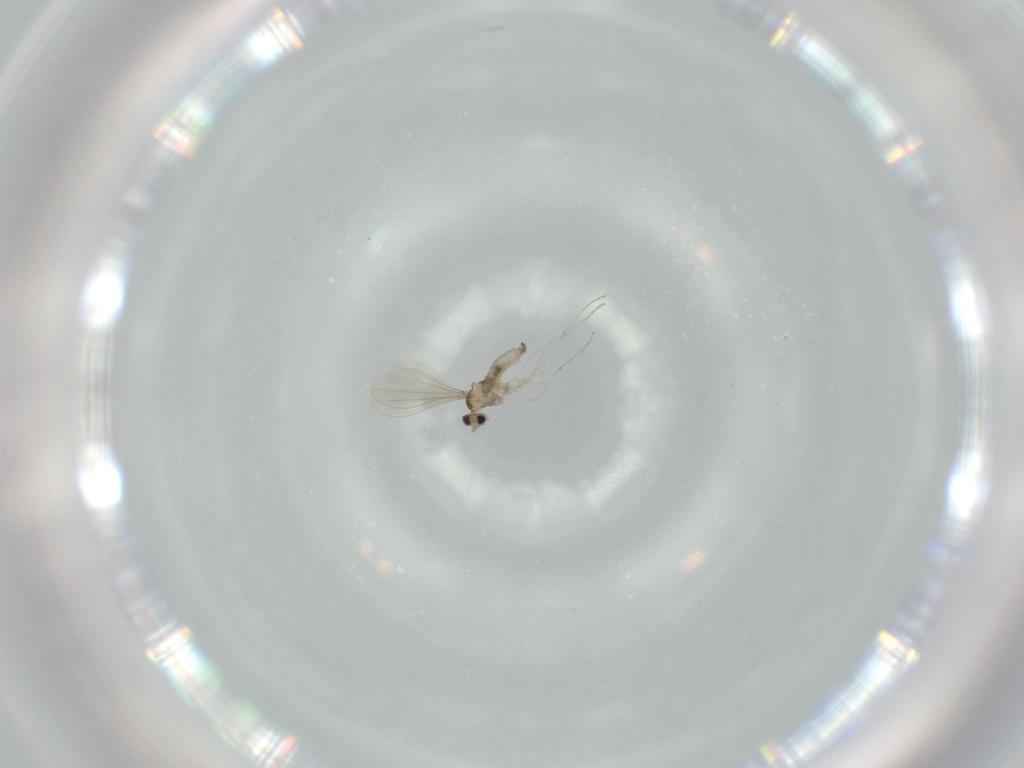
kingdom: Animalia
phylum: Arthropoda
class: Insecta
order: Diptera
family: Cecidomyiidae
